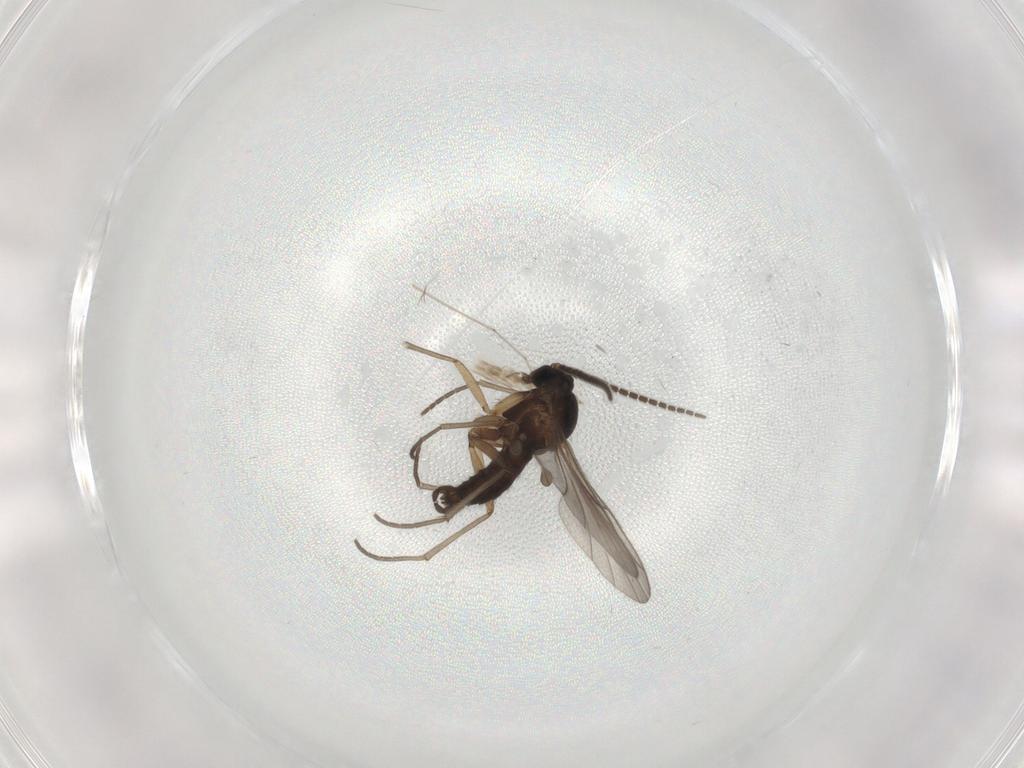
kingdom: Animalia
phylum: Arthropoda
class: Insecta
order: Diptera
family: Sciaridae
